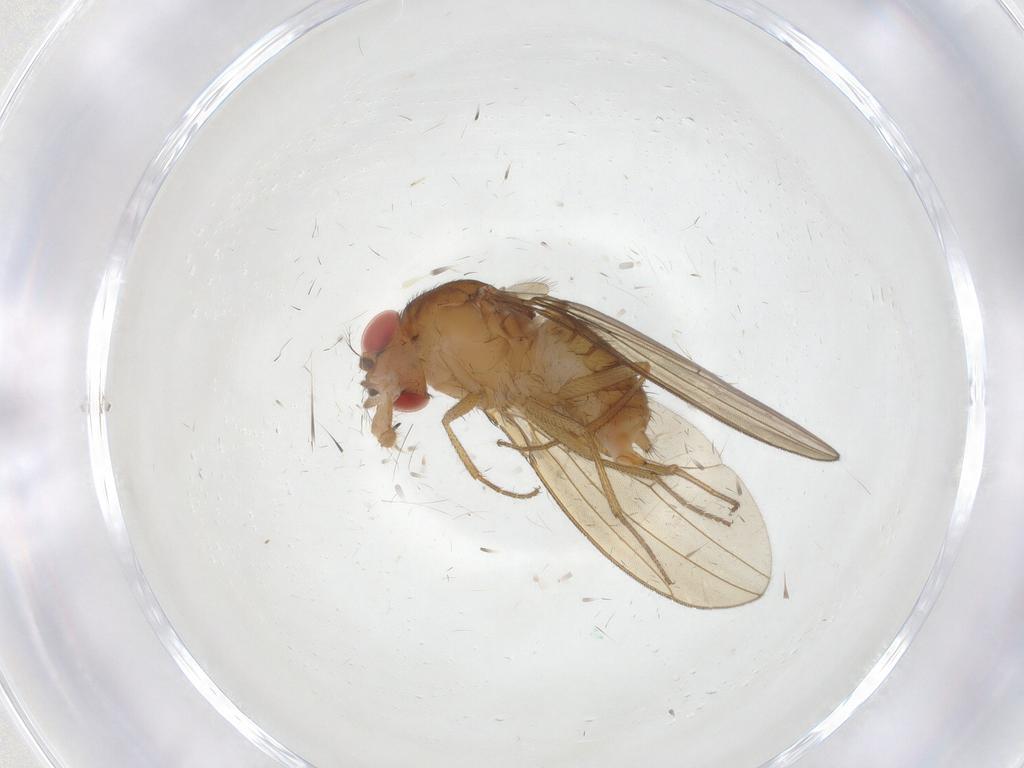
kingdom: Animalia
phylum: Arthropoda
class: Insecta
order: Diptera
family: Drosophilidae
